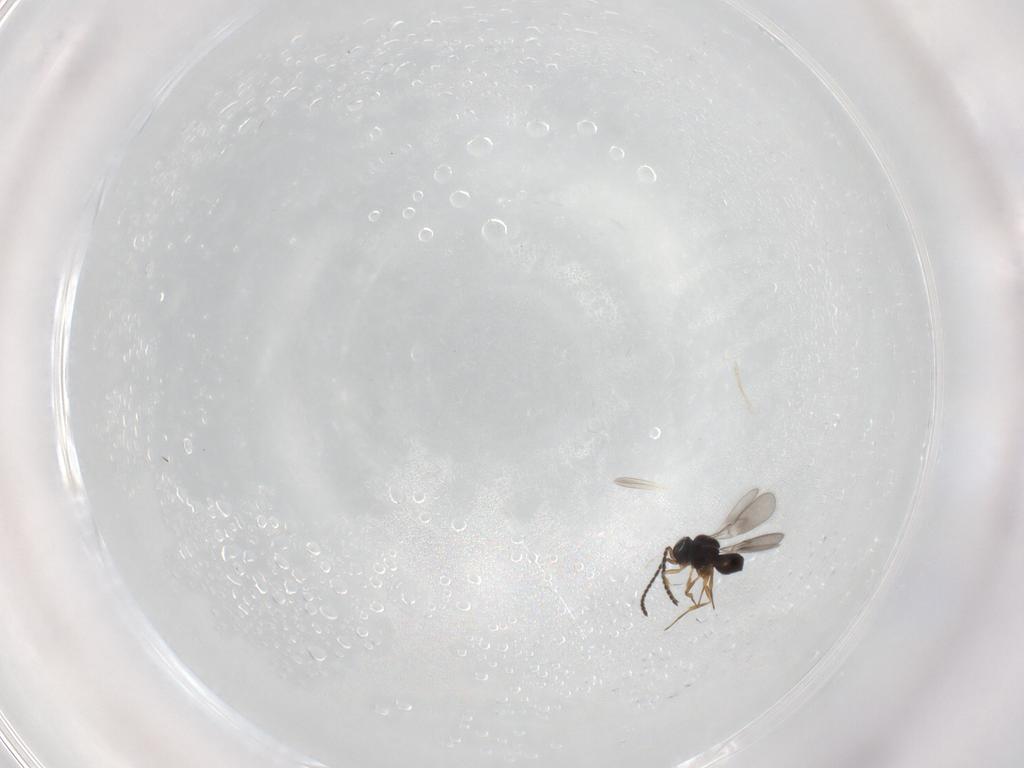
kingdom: Animalia
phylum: Arthropoda
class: Insecta
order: Hymenoptera
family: Scelionidae
